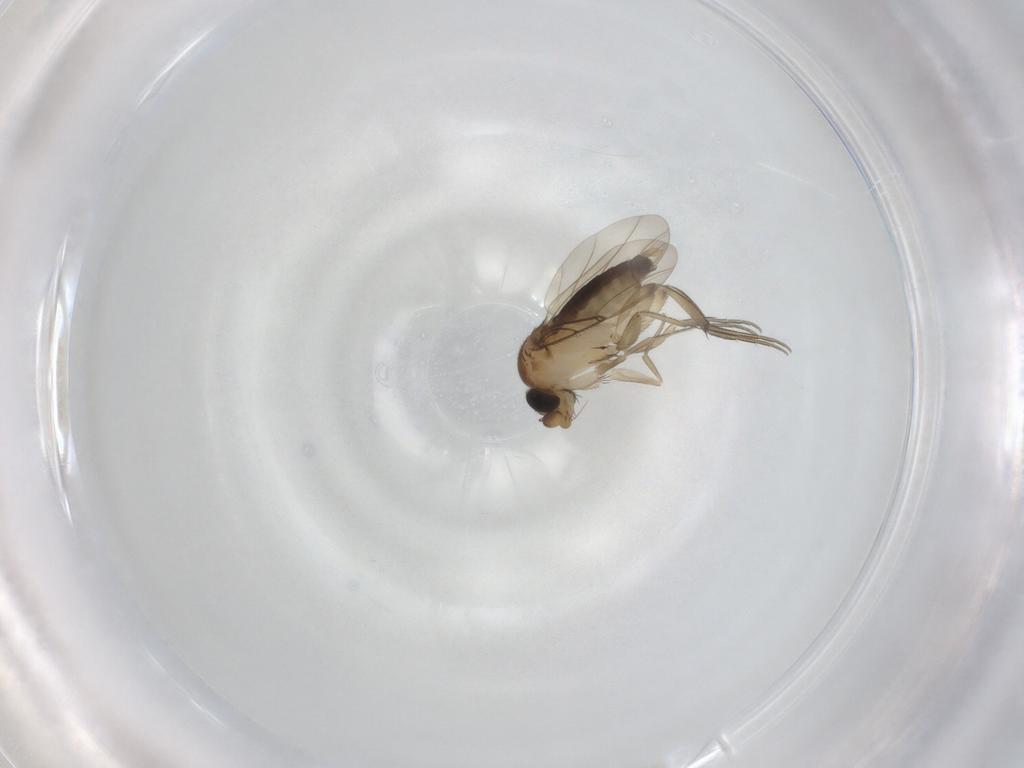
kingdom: Animalia
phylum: Arthropoda
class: Insecta
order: Diptera
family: Phoridae
